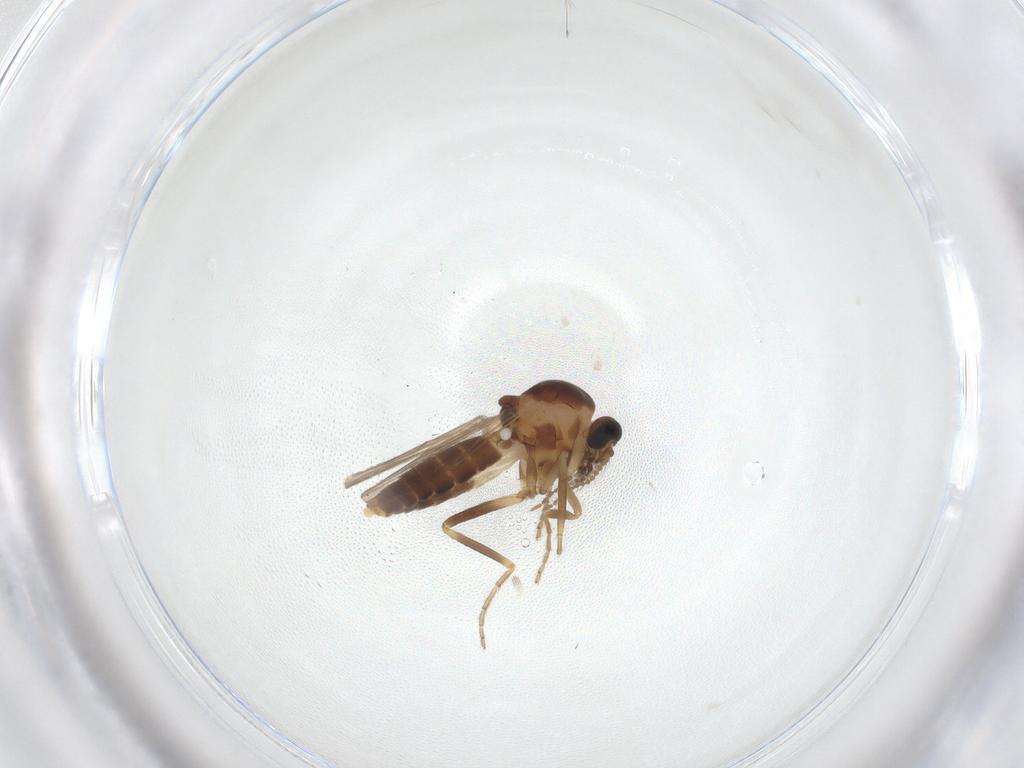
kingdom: Animalia
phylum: Arthropoda
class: Insecta
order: Diptera
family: Ceratopogonidae
